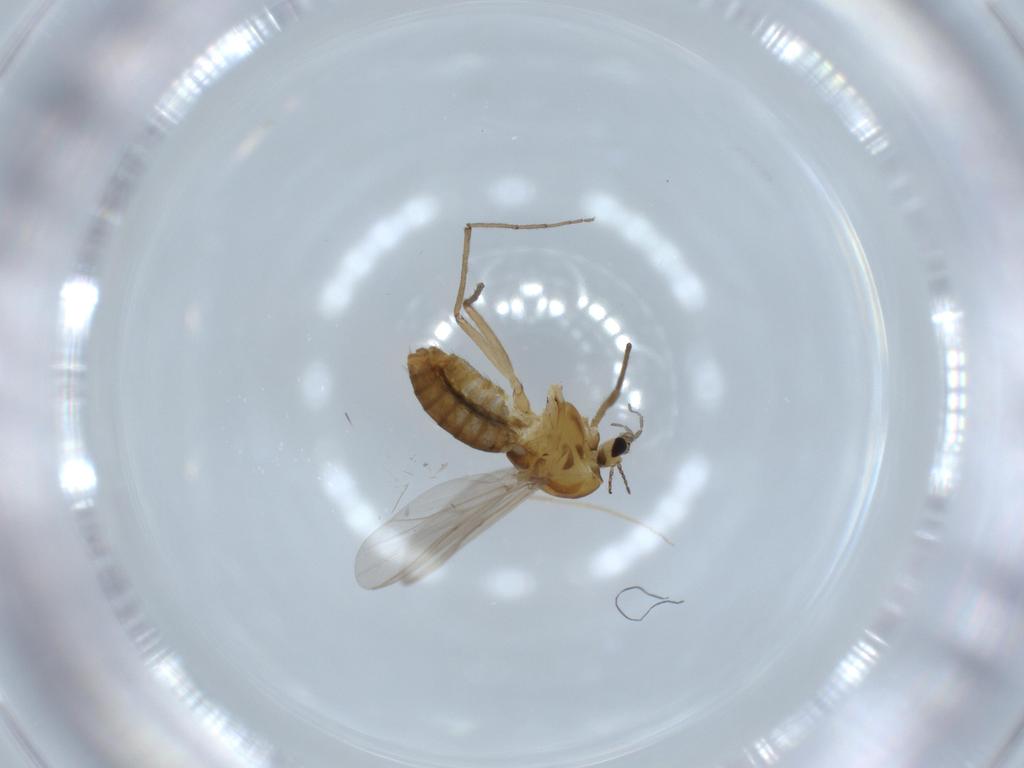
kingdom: Animalia
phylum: Arthropoda
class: Insecta
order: Diptera
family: Chironomidae
